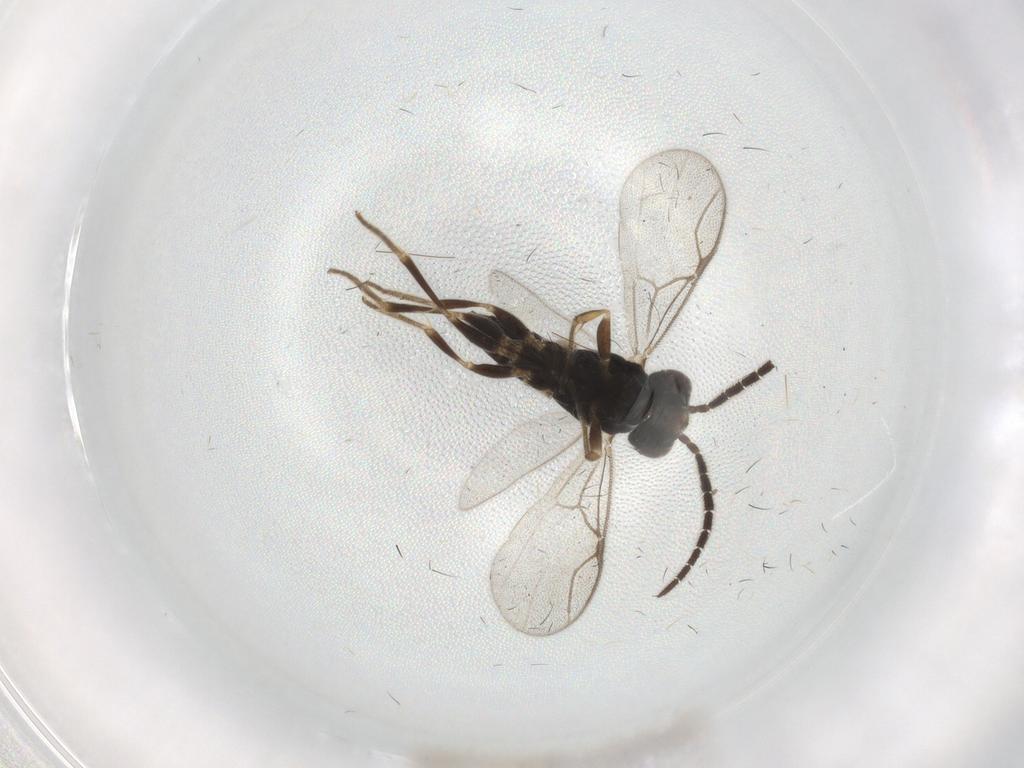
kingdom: Animalia
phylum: Arthropoda
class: Insecta
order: Hymenoptera
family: Dryinidae
